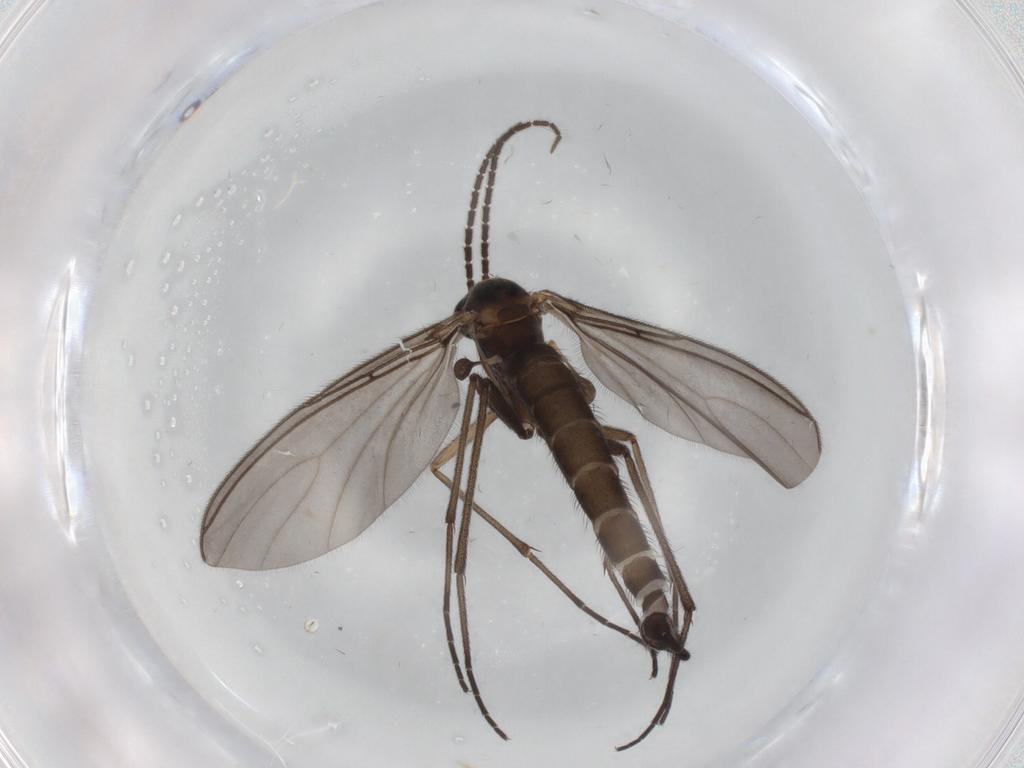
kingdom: Animalia
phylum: Arthropoda
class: Insecta
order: Diptera
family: Sciaridae
